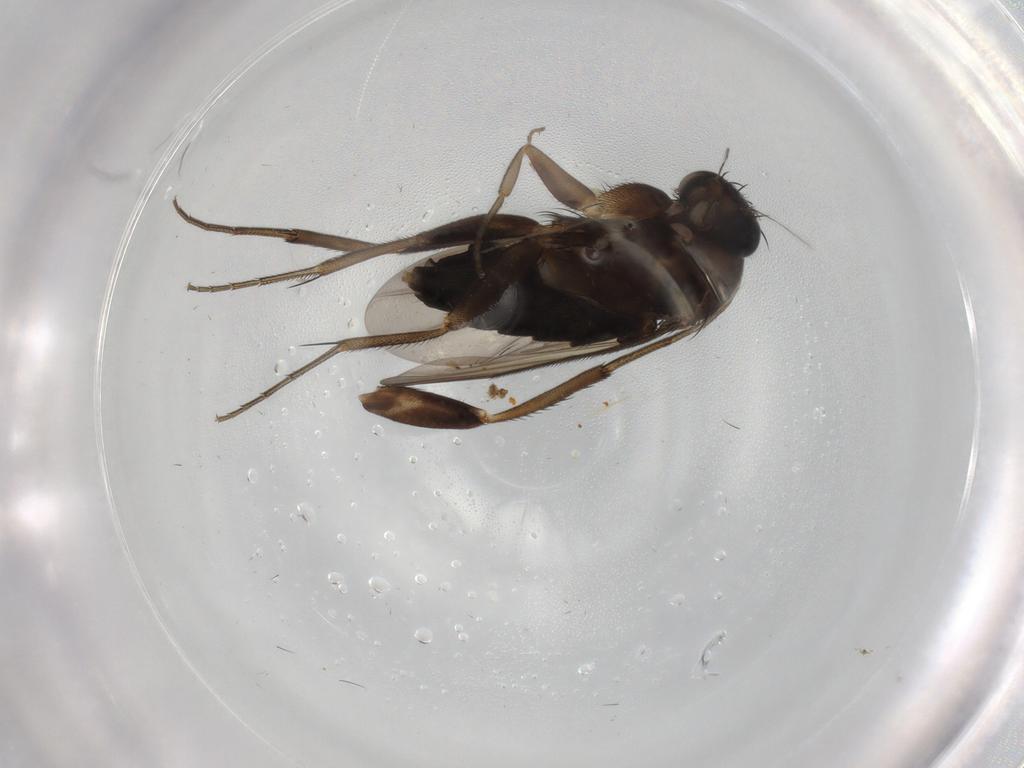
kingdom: Animalia
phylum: Arthropoda
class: Insecta
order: Diptera
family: Phoridae
